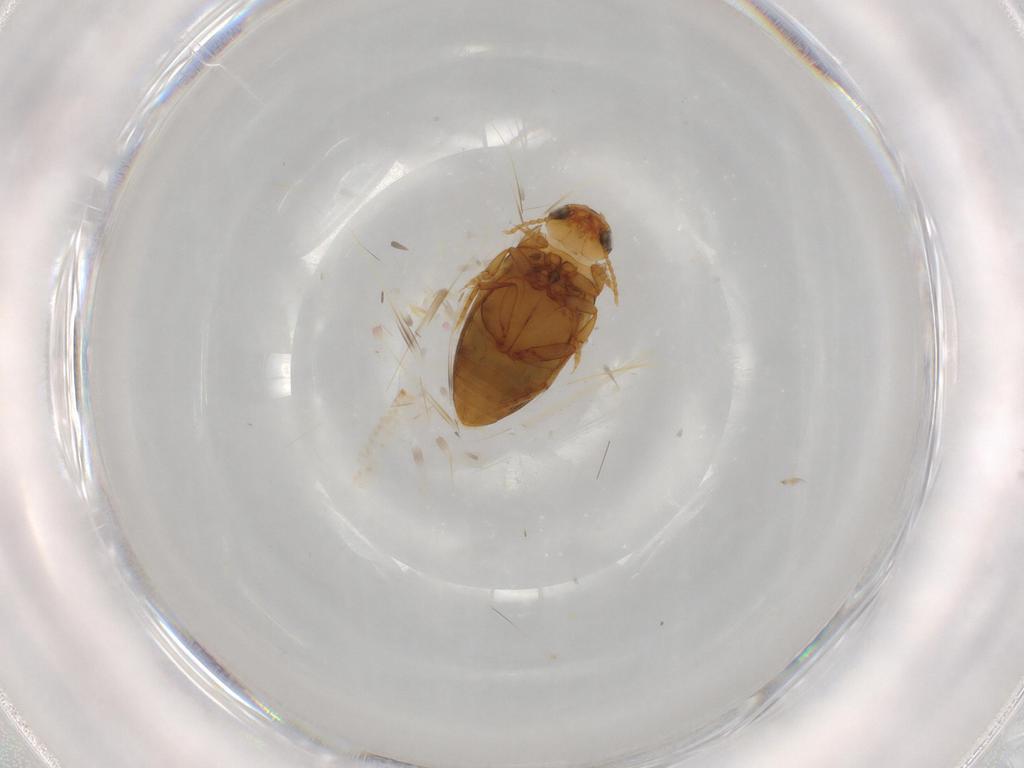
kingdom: Animalia
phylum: Arthropoda
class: Insecta
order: Coleoptera
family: Dytiscidae
